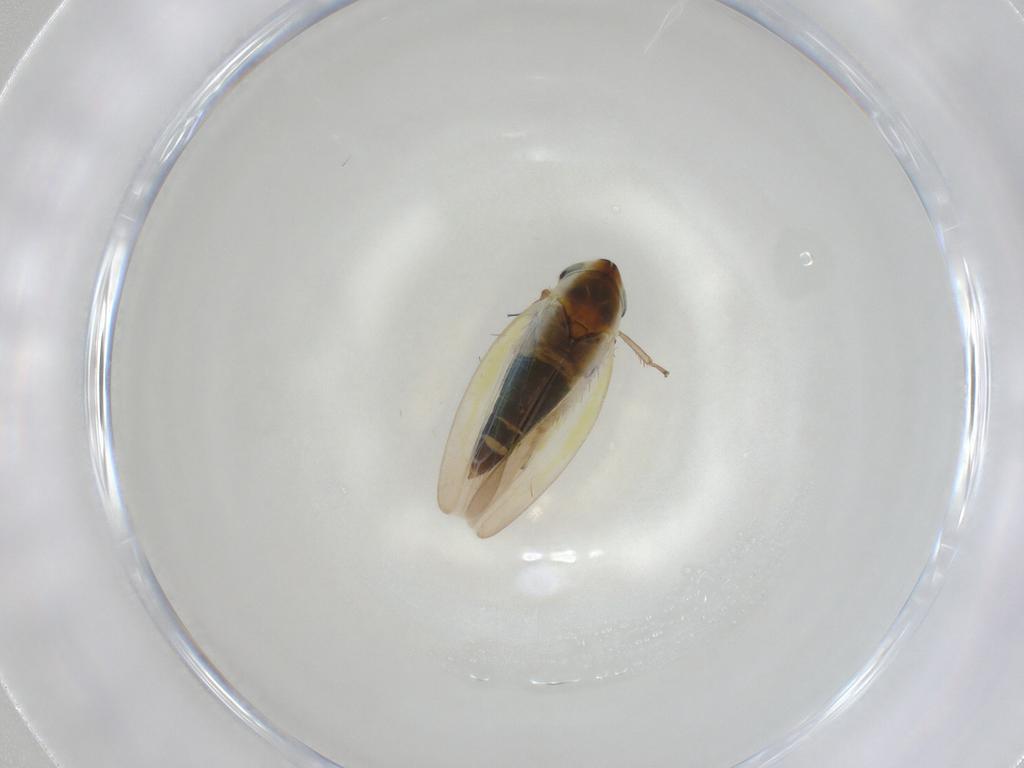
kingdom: Animalia
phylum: Arthropoda
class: Insecta
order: Hemiptera
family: Cicadellidae
